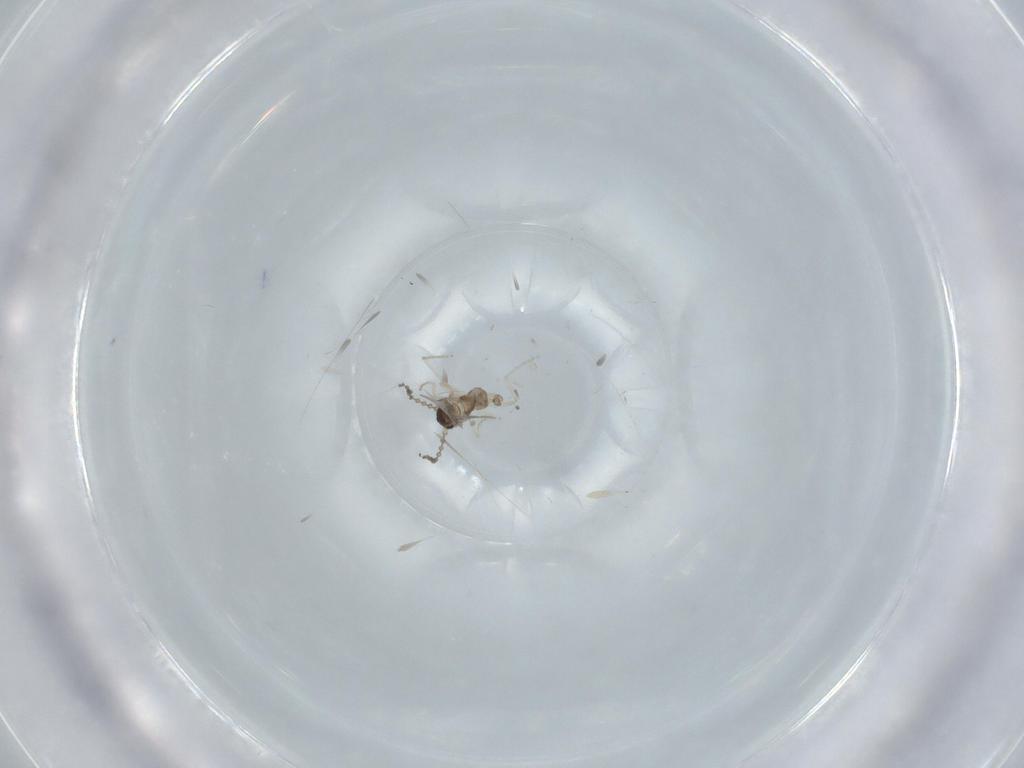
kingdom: Animalia
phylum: Arthropoda
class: Insecta
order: Diptera
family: Cecidomyiidae
